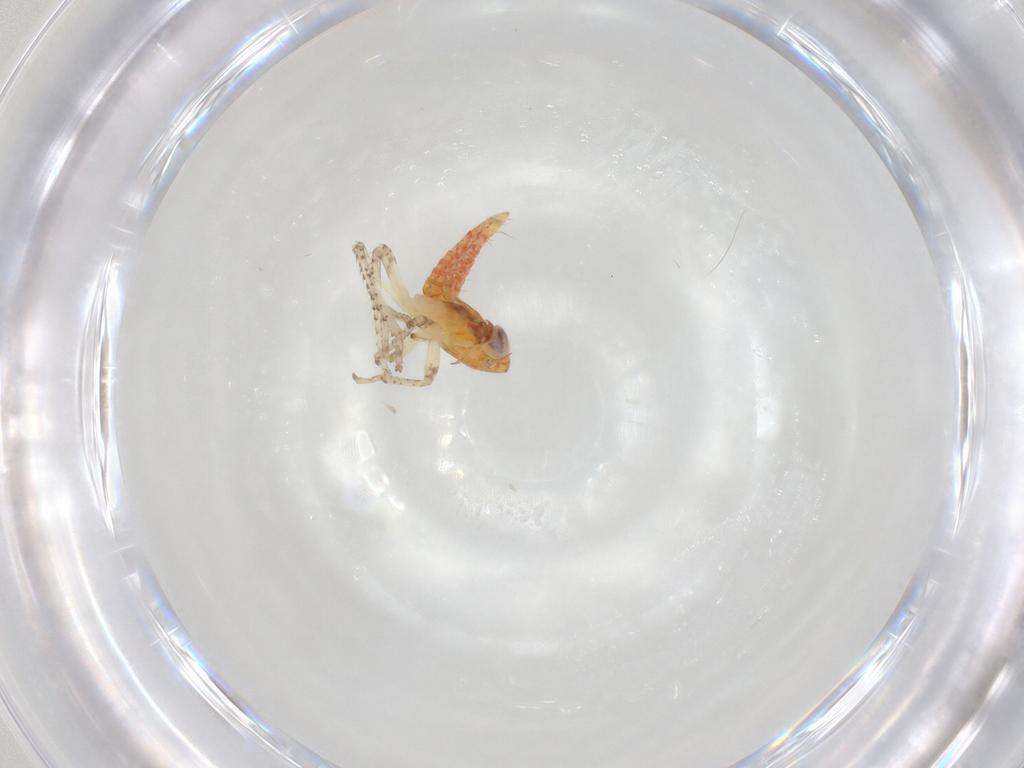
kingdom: Animalia
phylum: Arthropoda
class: Insecta
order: Hemiptera
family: Cicadellidae
